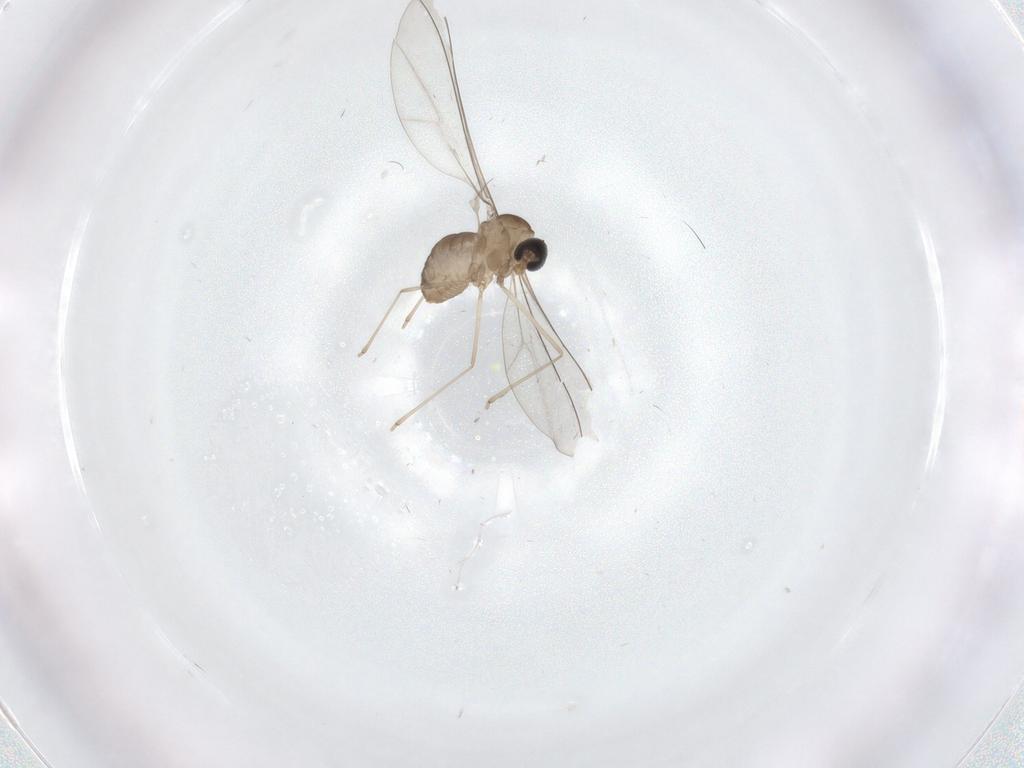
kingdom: Animalia
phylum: Arthropoda
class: Insecta
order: Diptera
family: Cecidomyiidae
